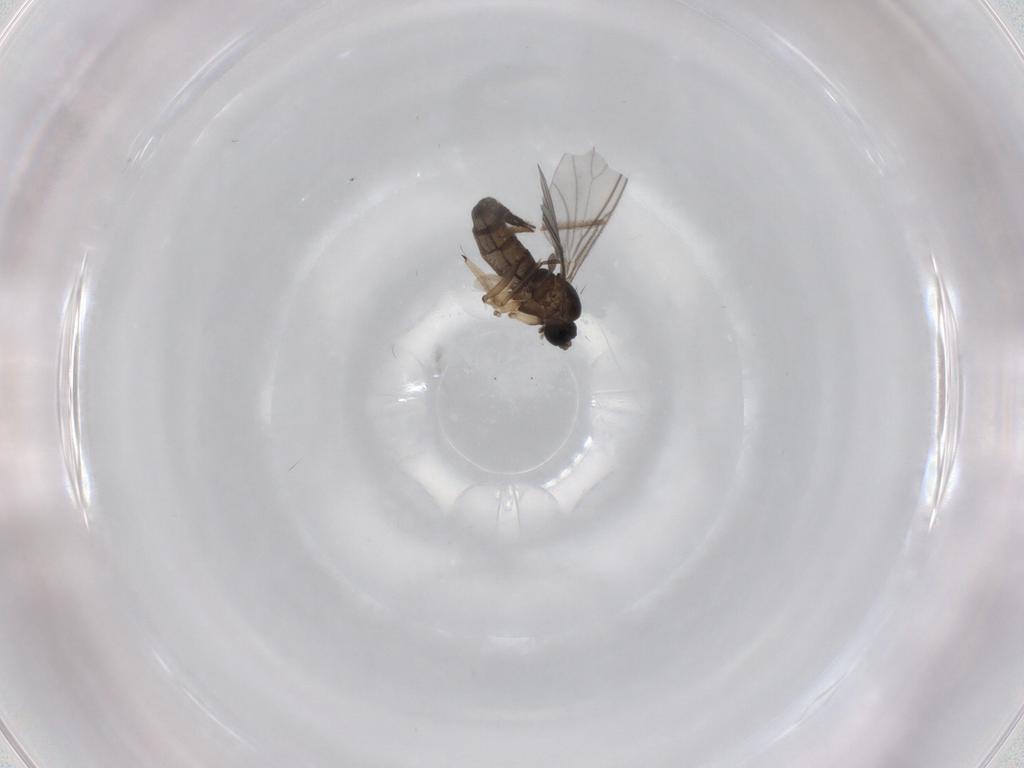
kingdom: Animalia
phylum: Arthropoda
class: Insecta
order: Diptera
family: Sciaridae
